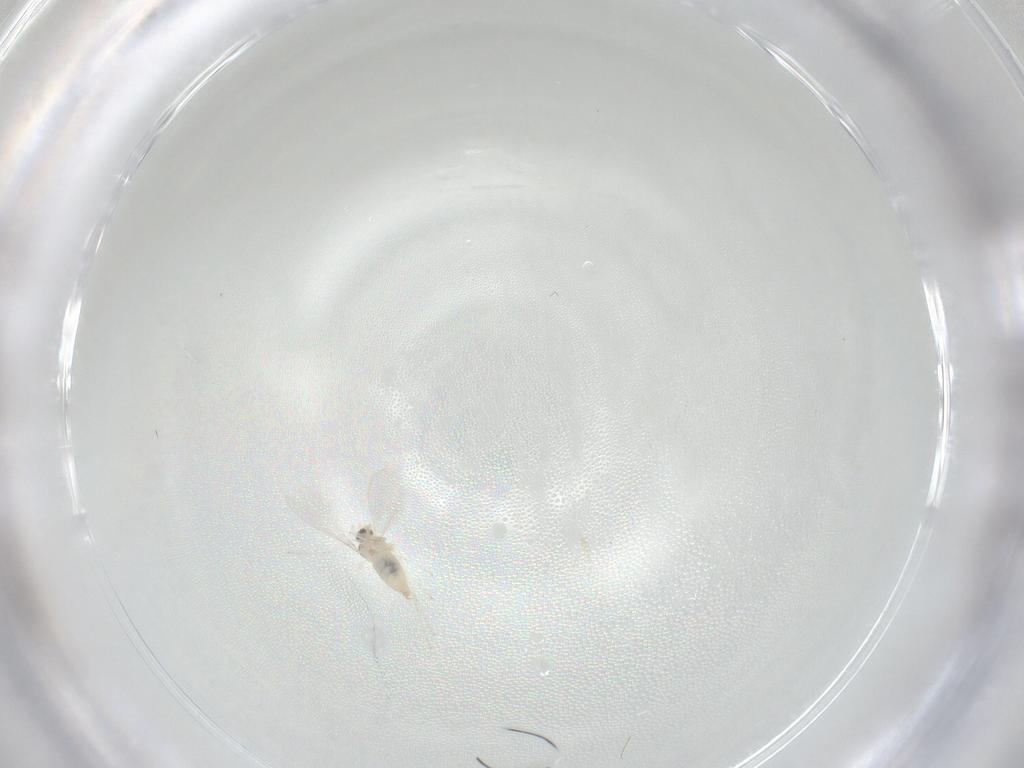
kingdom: Animalia
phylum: Arthropoda
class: Insecta
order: Diptera
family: Cecidomyiidae
